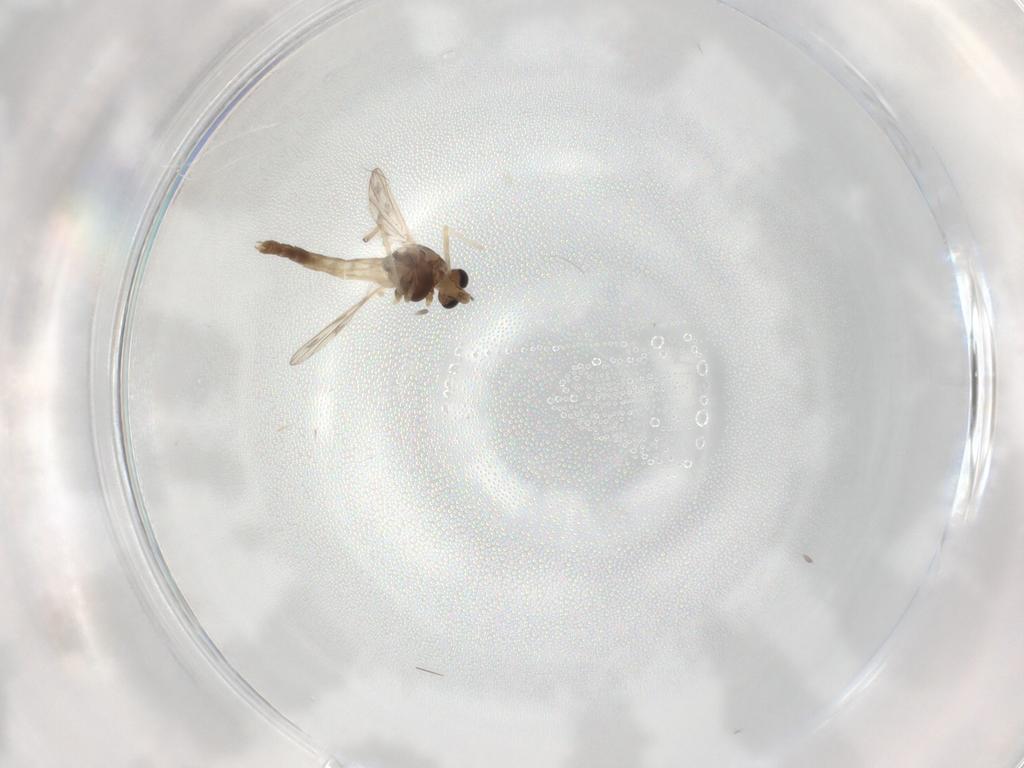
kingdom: Animalia
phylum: Arthropoda
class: Insecta
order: Diptera
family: Chironomidae
